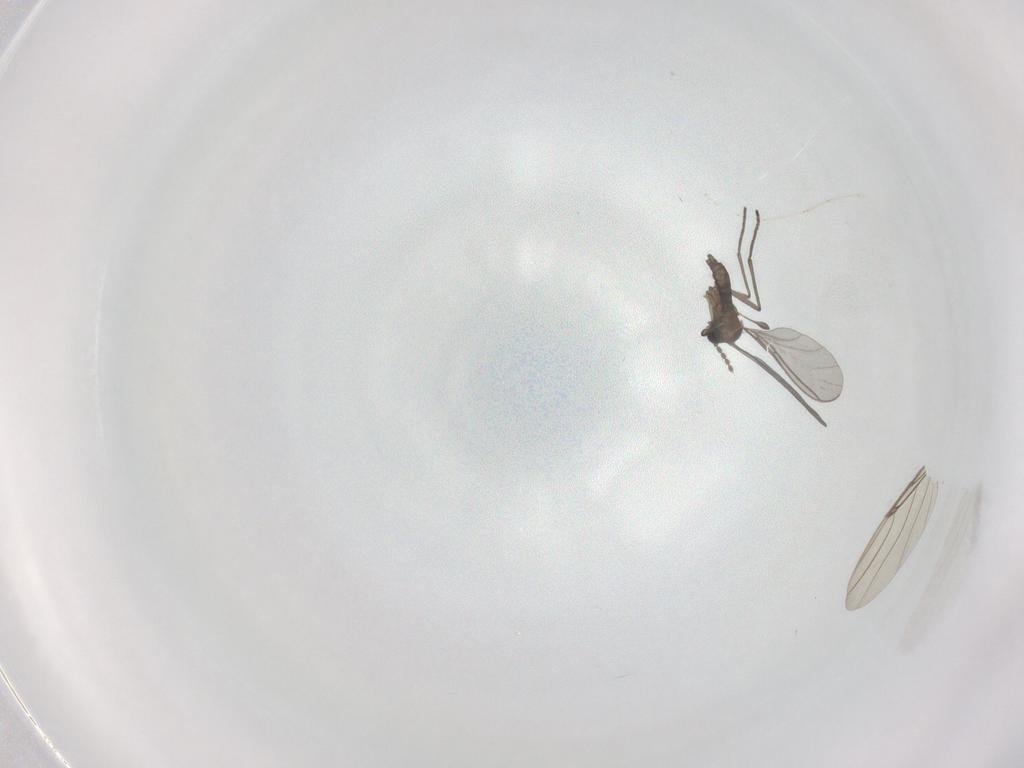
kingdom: Animalia
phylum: Arthropoda
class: Insecta
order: Diptera
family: Cecidomyiidae
